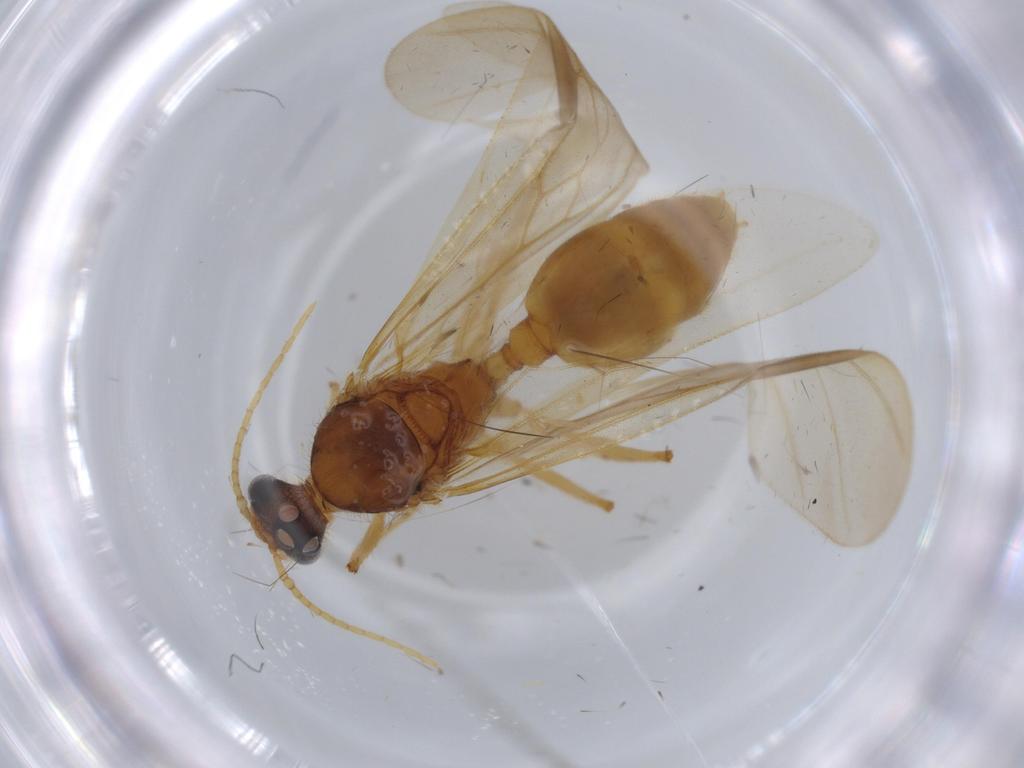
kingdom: Animalia
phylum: Arthropoda
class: Insecta
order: Hymenoptera
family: Formicidae
